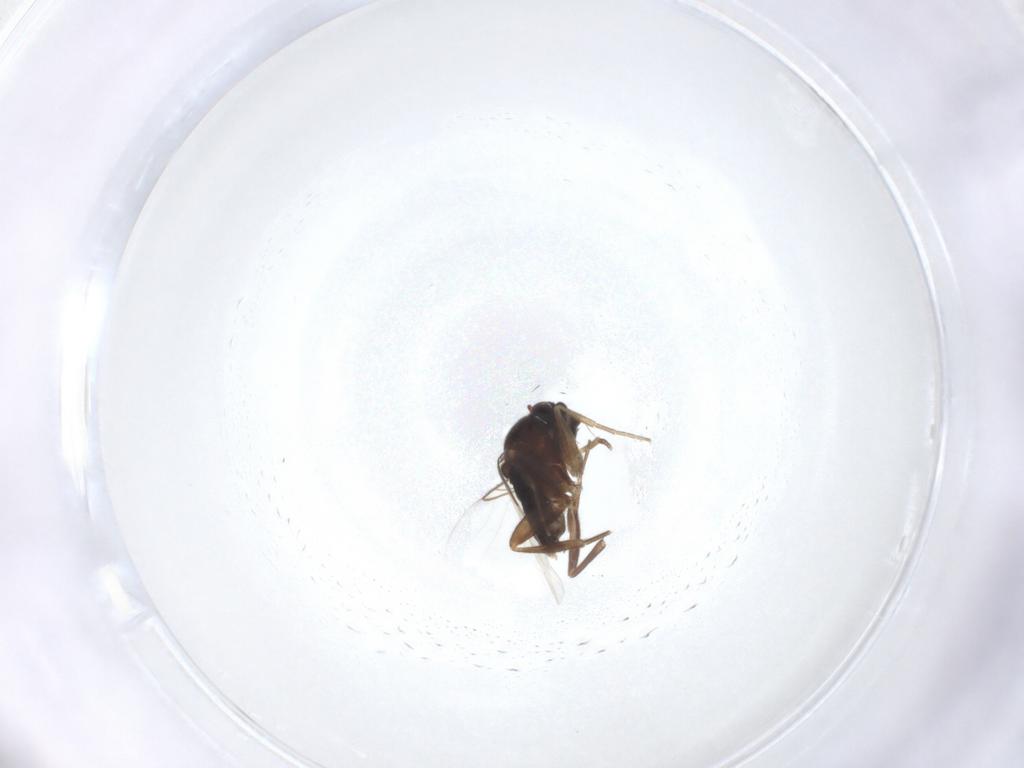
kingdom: Animalia
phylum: Arthropoda
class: Insecta
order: Diptera
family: Phoridae
